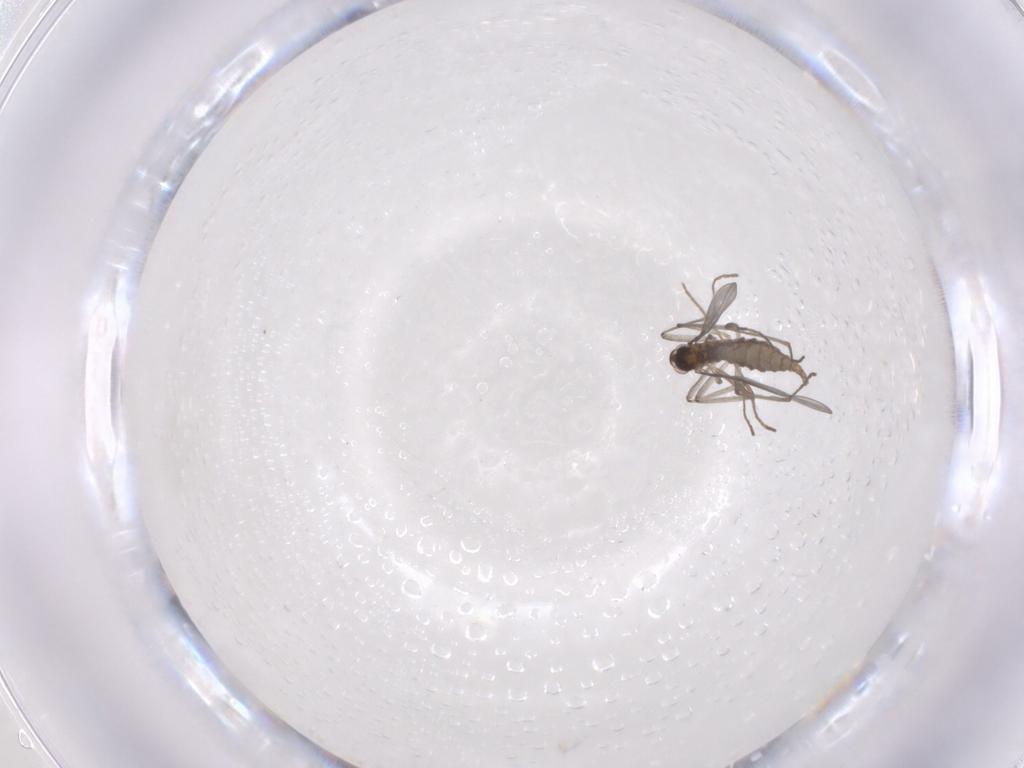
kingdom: Animalia
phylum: Arthropoda
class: Insecta
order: Diptera
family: Cecidomyiidae
